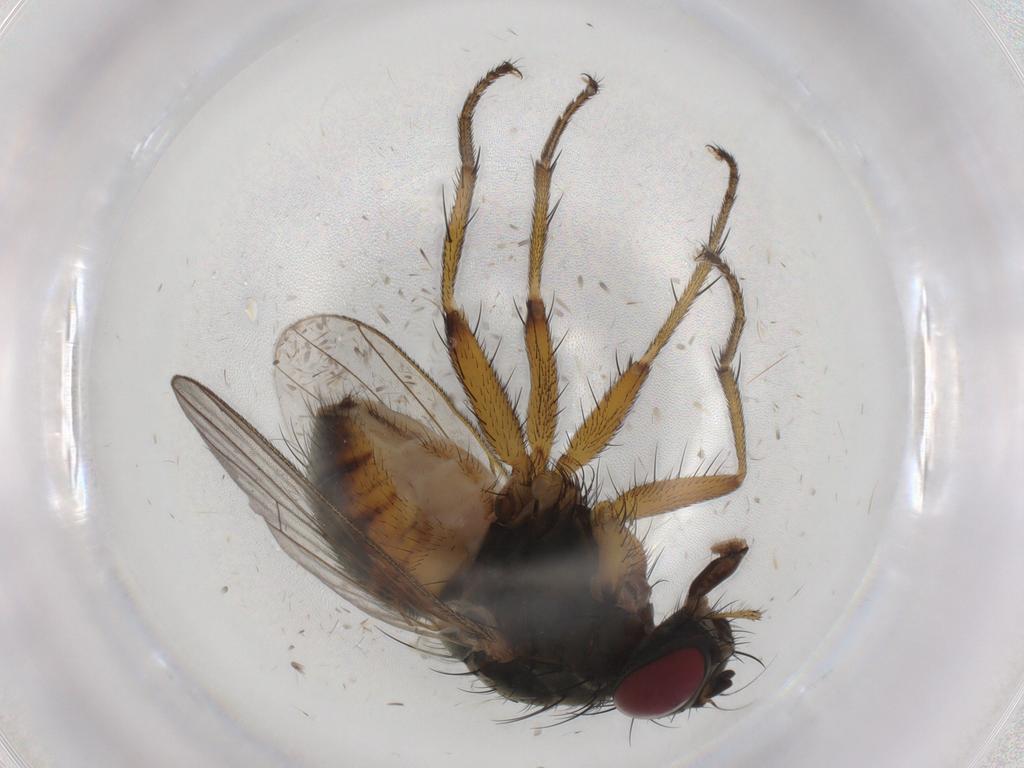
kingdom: Animalia
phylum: Arthropoda
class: Insecta
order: Diptera
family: Muscidae
